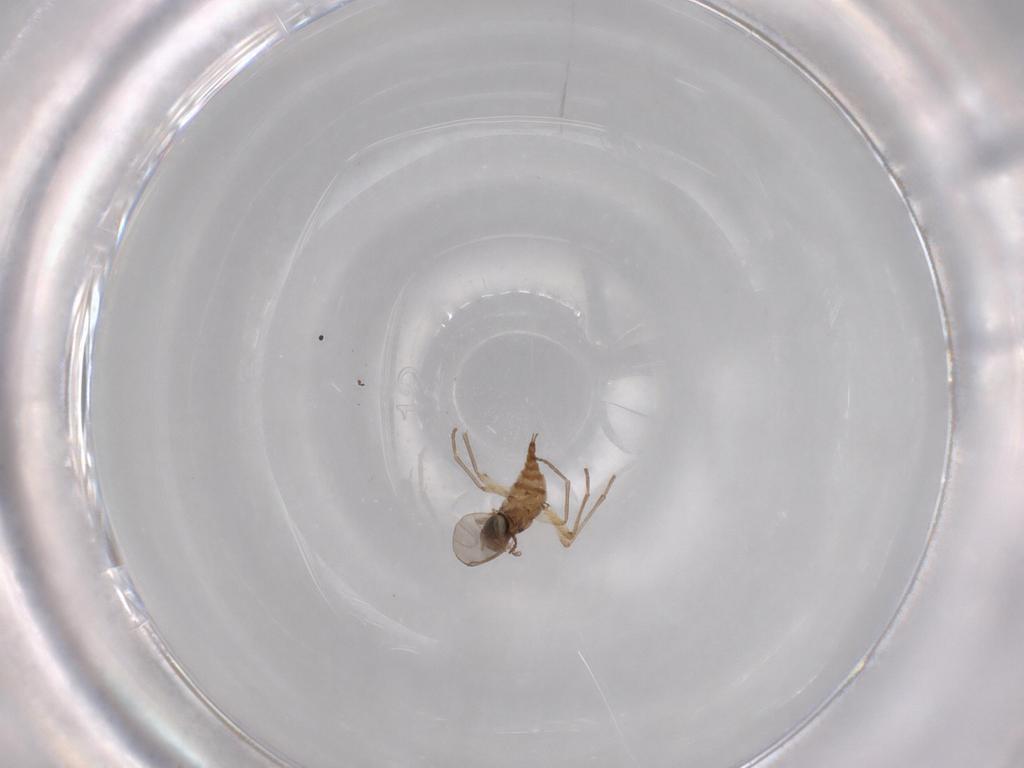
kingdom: Animalia
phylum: Arthropoda
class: Insecta
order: Diptera
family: Sciaridae
